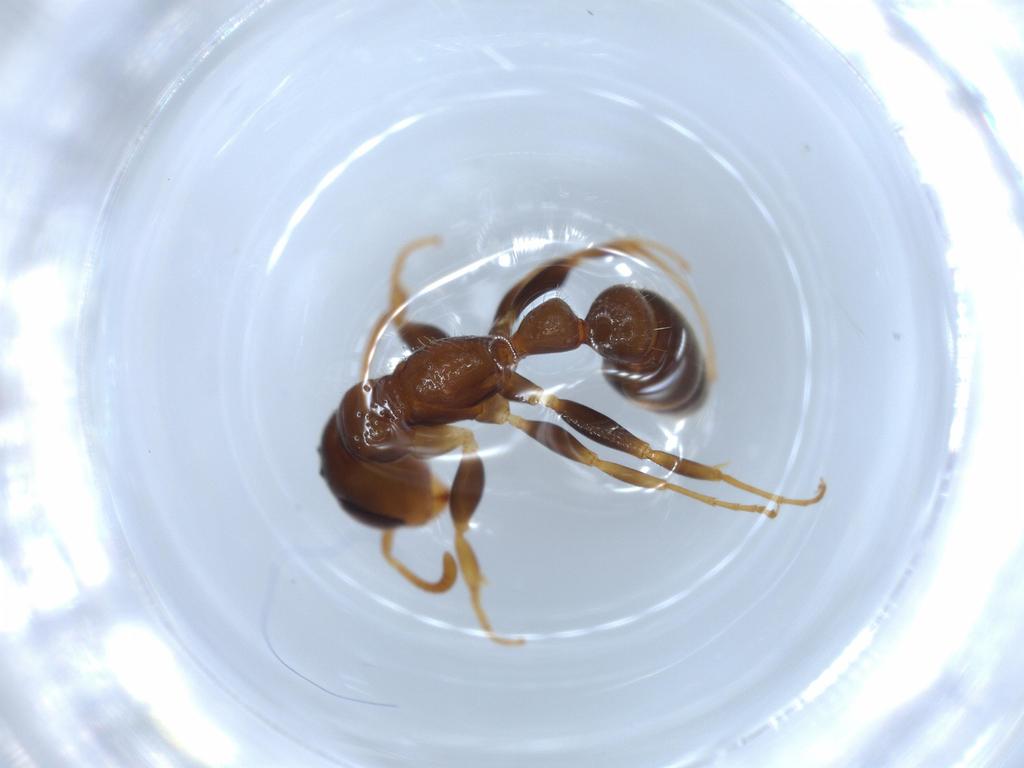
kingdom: Animalia
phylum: Arthropoda
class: Insecta
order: Hymenoptera
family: Formicidae
